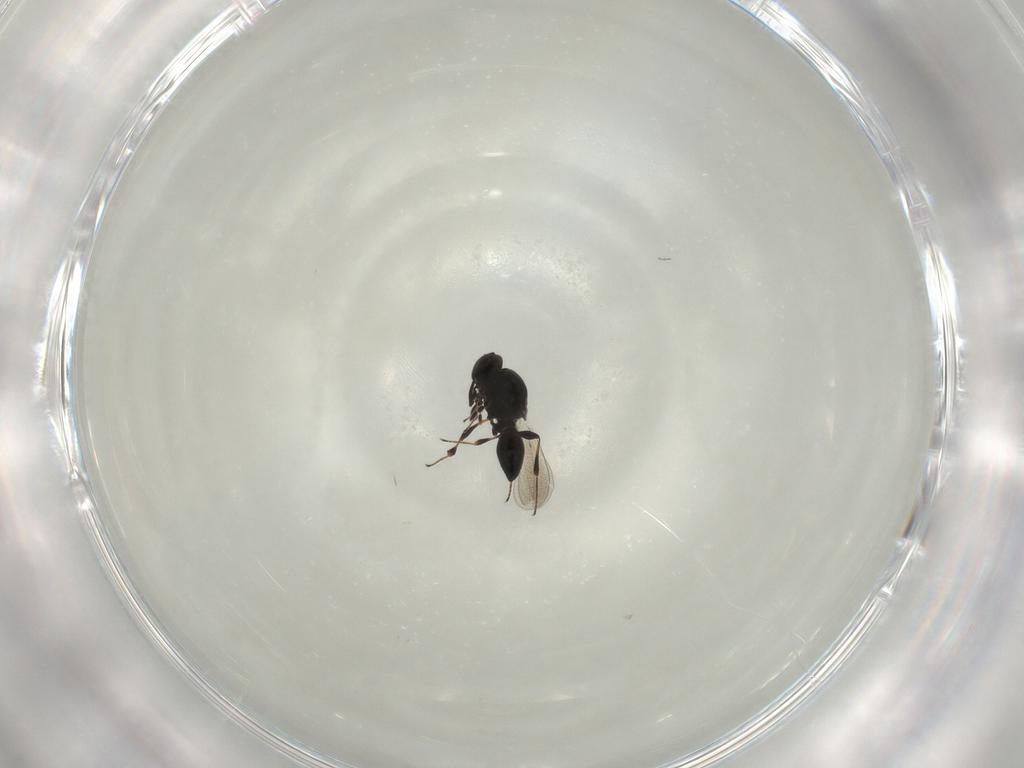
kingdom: Animalia
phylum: Arthropoda
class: Insecta
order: Hymenoptera
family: Platygastridae
